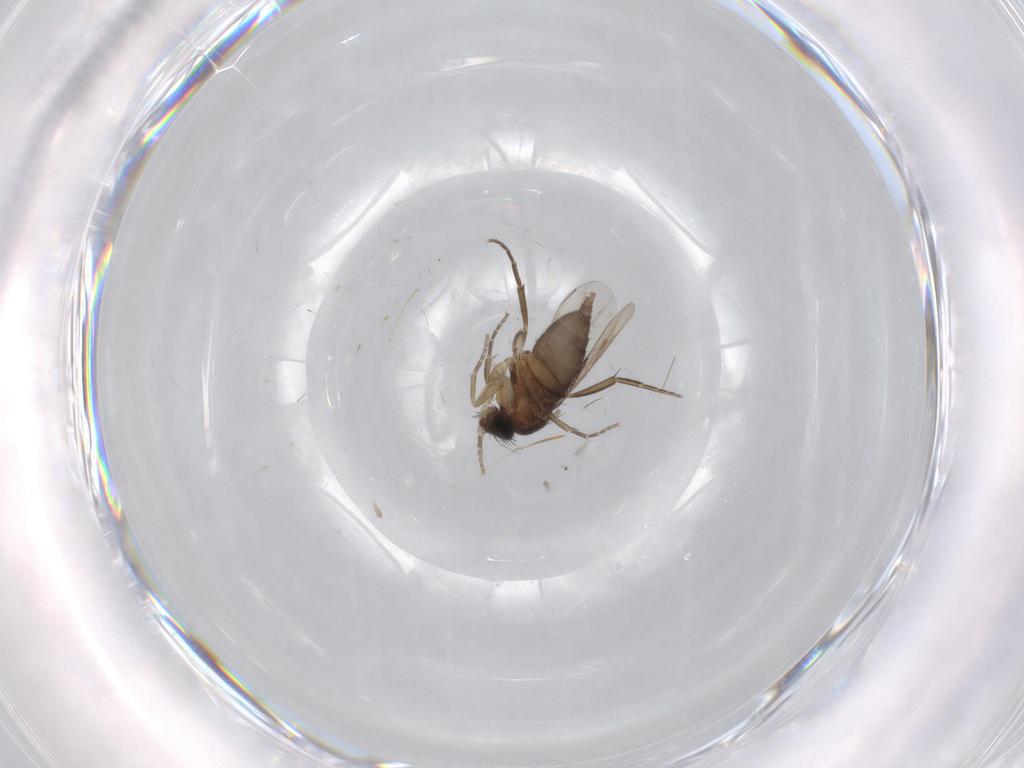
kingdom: Animalia
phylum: Arthropoda
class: Insecta
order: Diptera
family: Phoridae
